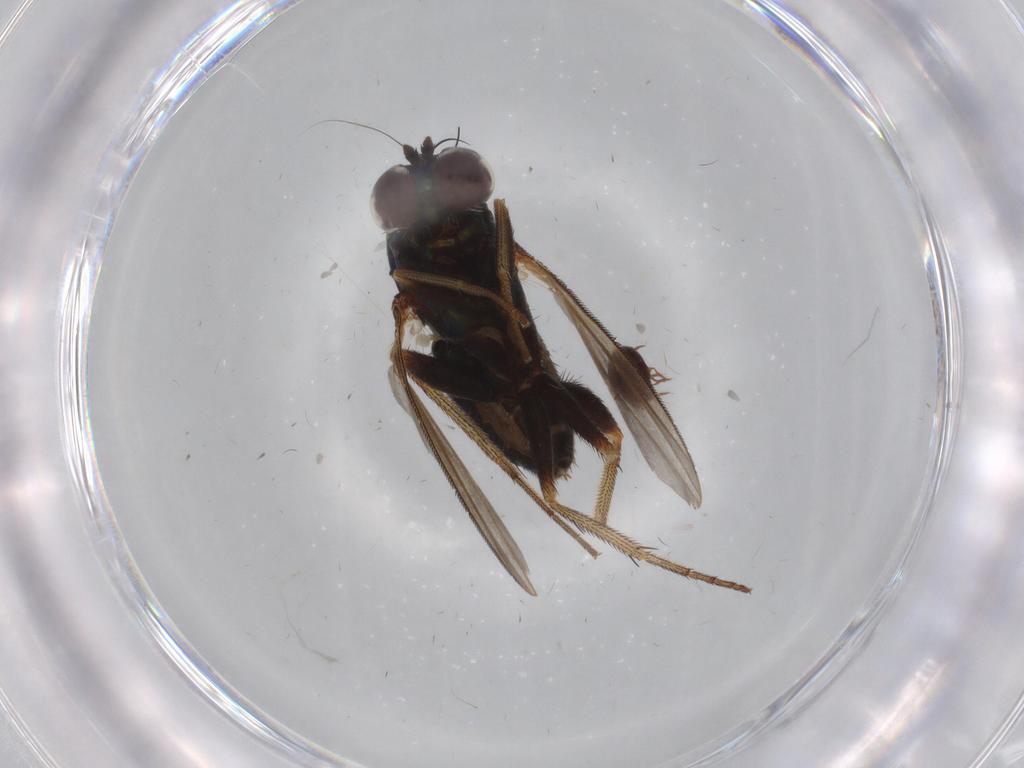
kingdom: Animalia
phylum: Arthropoda
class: Insecta
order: Diptera
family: Dolichopodidae
